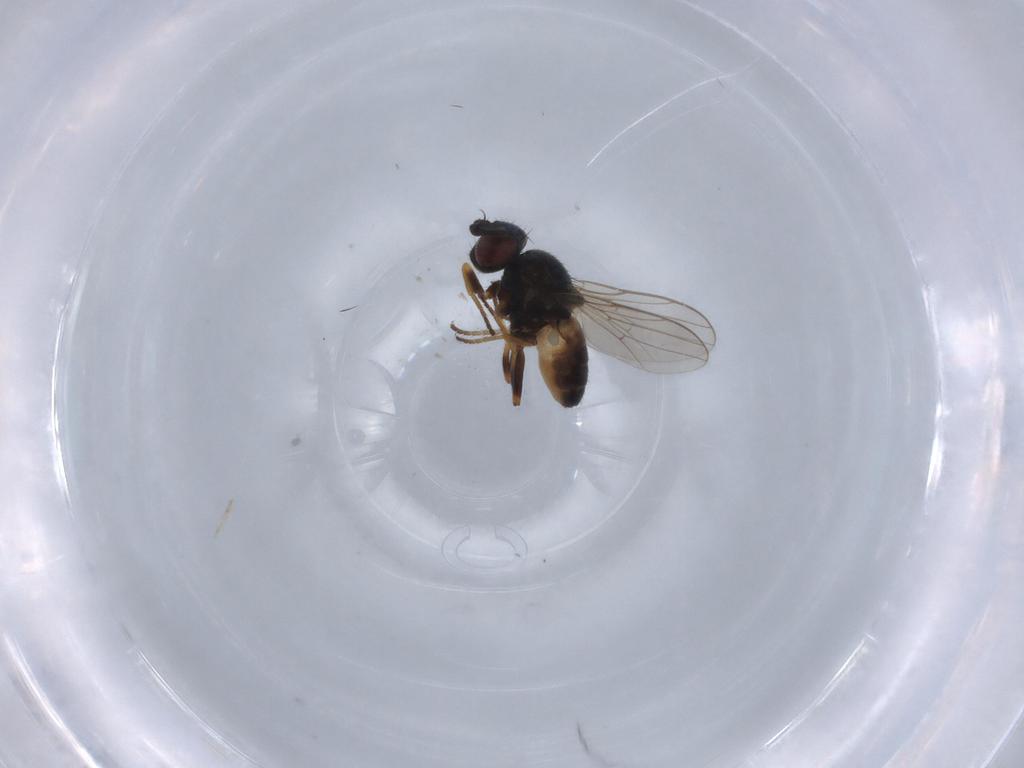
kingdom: Animalia
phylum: Arthropoda
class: Insecta
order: Diptera
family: Chloropidae
